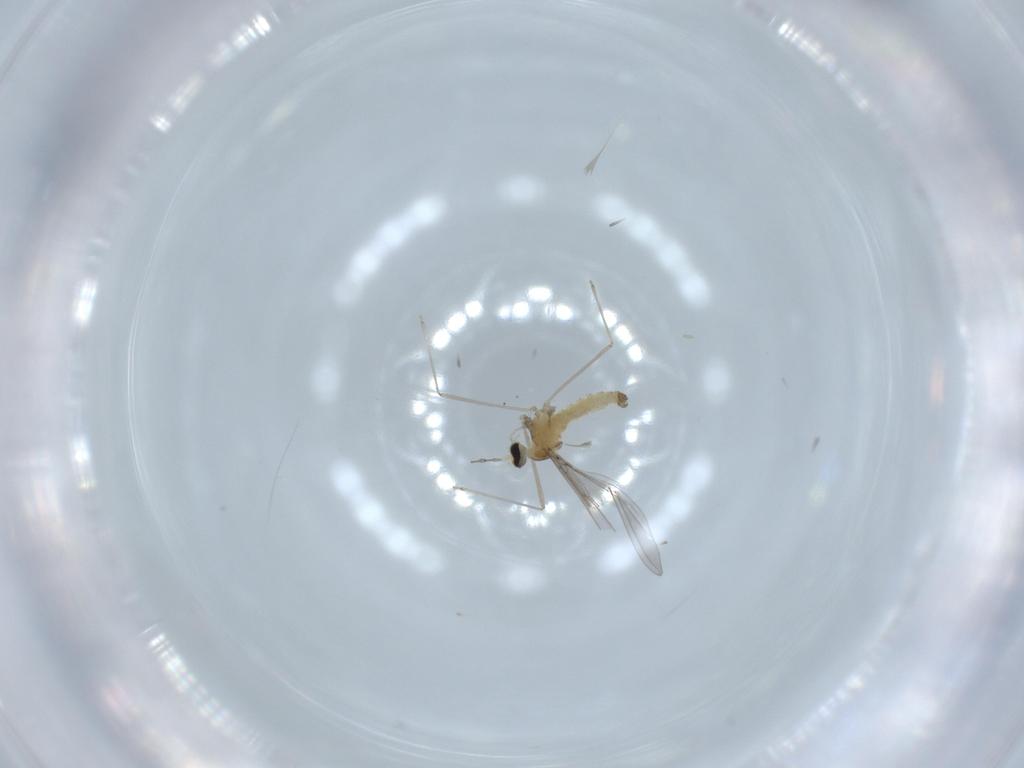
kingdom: Animalia
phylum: Arthropoda
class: Insecta
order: Diptera
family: Cecidomyiidae
